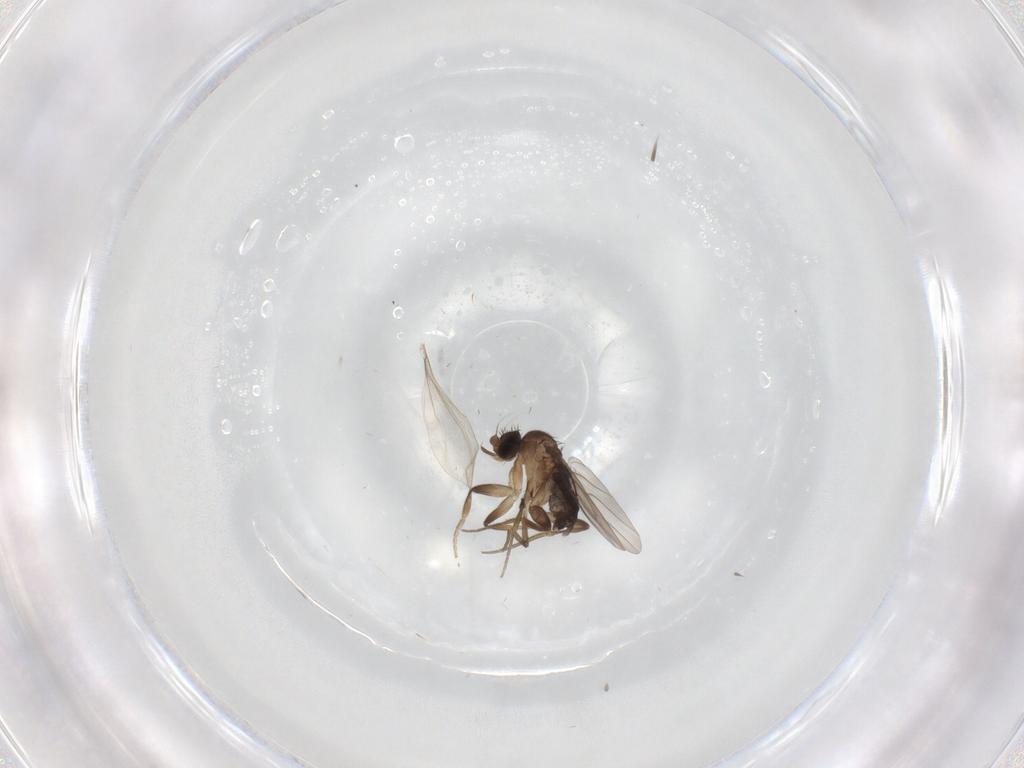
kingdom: Animalia
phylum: Arthropoda
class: Insecta
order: Diptera
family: Phoridae
